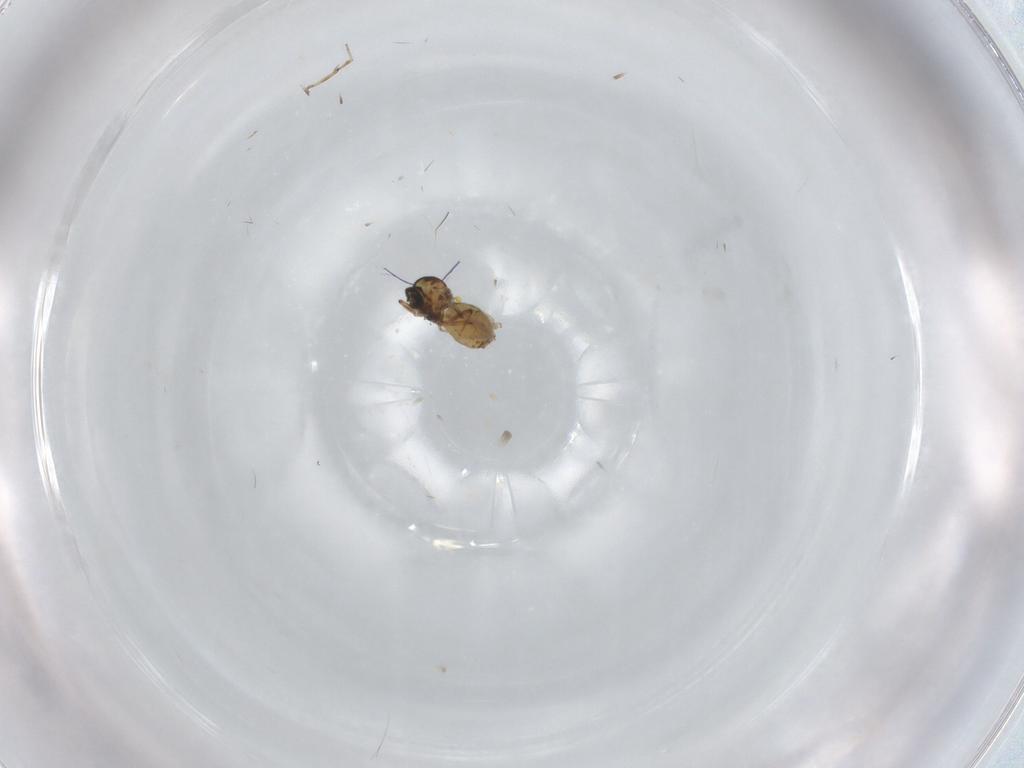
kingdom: Animalia
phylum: Arthropoda
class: Insecta
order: Diptera
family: Ceratopogonidae
